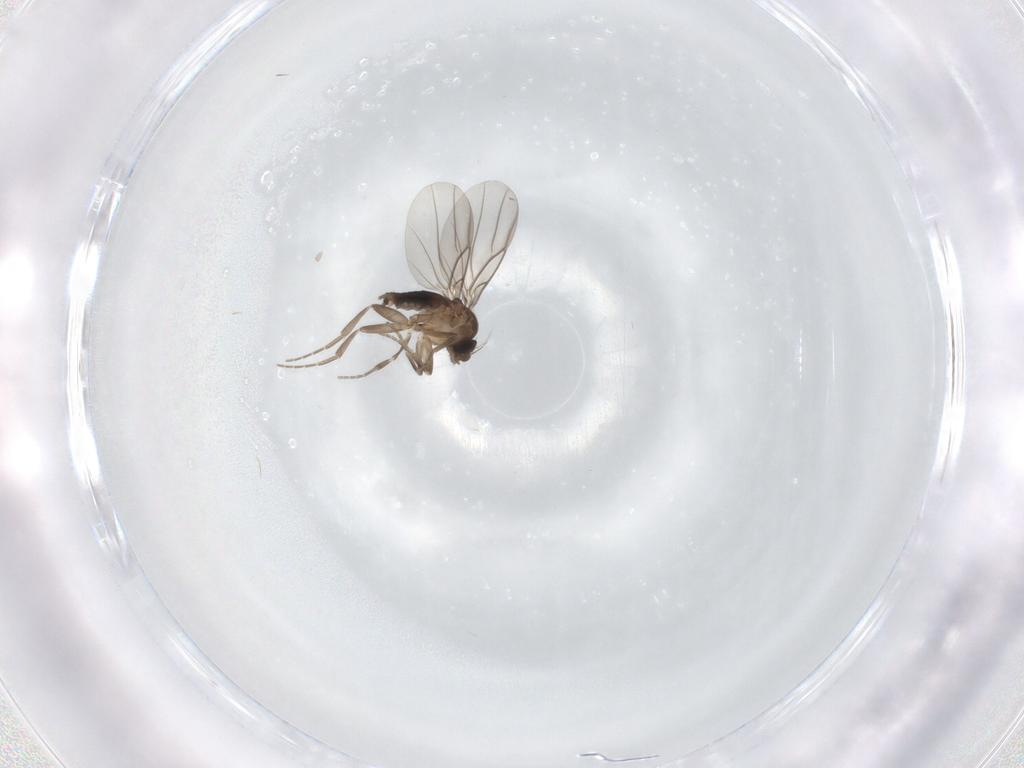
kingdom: Animalia
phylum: Arthropoda
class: Insecta
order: Diptera
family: Phoridae
